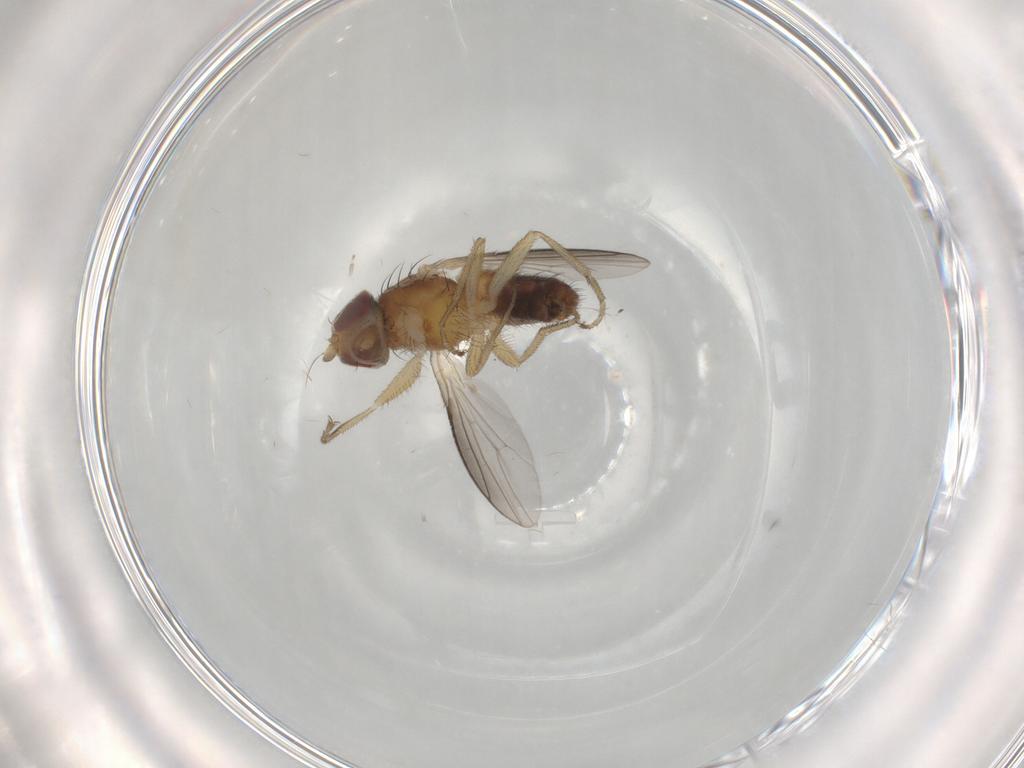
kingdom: Animalia
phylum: Arthropoda
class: Insecta
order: Diptera
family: Heleomyzidae
